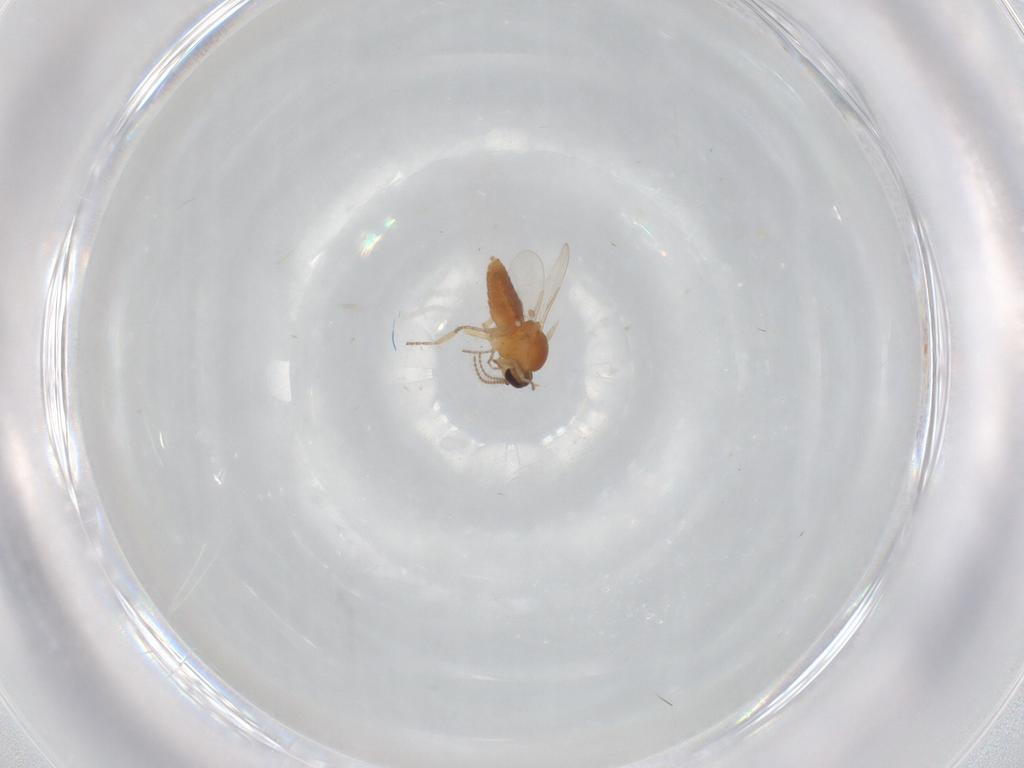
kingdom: Animalia
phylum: Arthropoda
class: Insecta
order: Diptera
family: Ceratopogonidae
